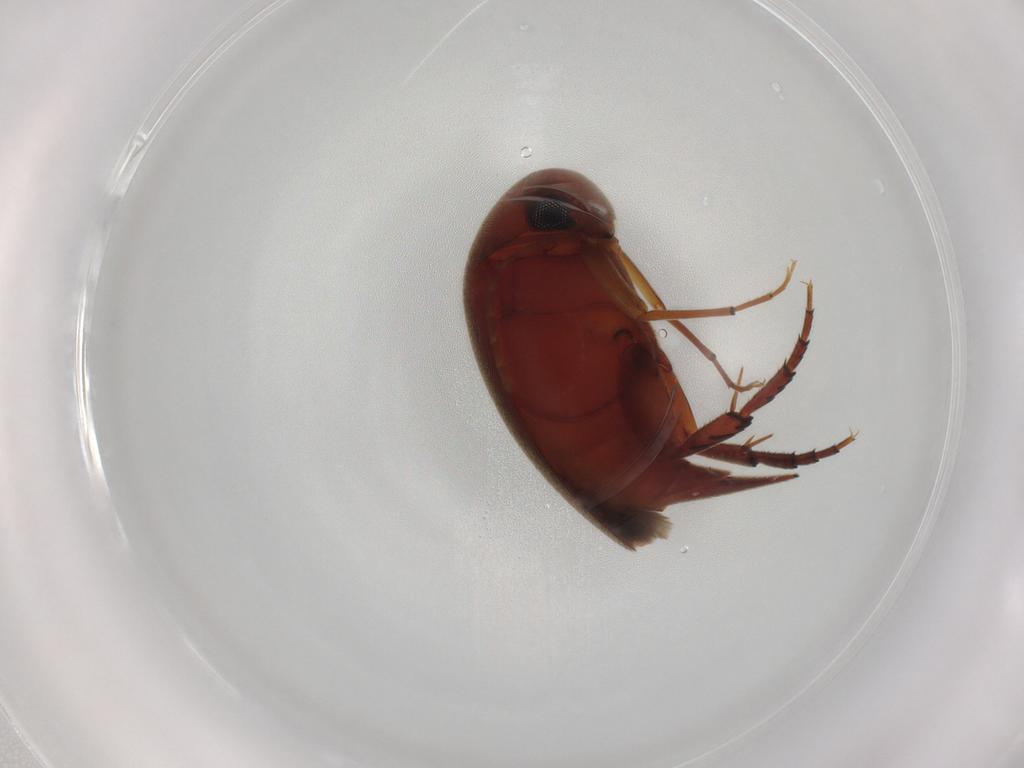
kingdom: Animalia
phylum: Arthropoda
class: Insecta
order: Coleoptera
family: Mordellidae
